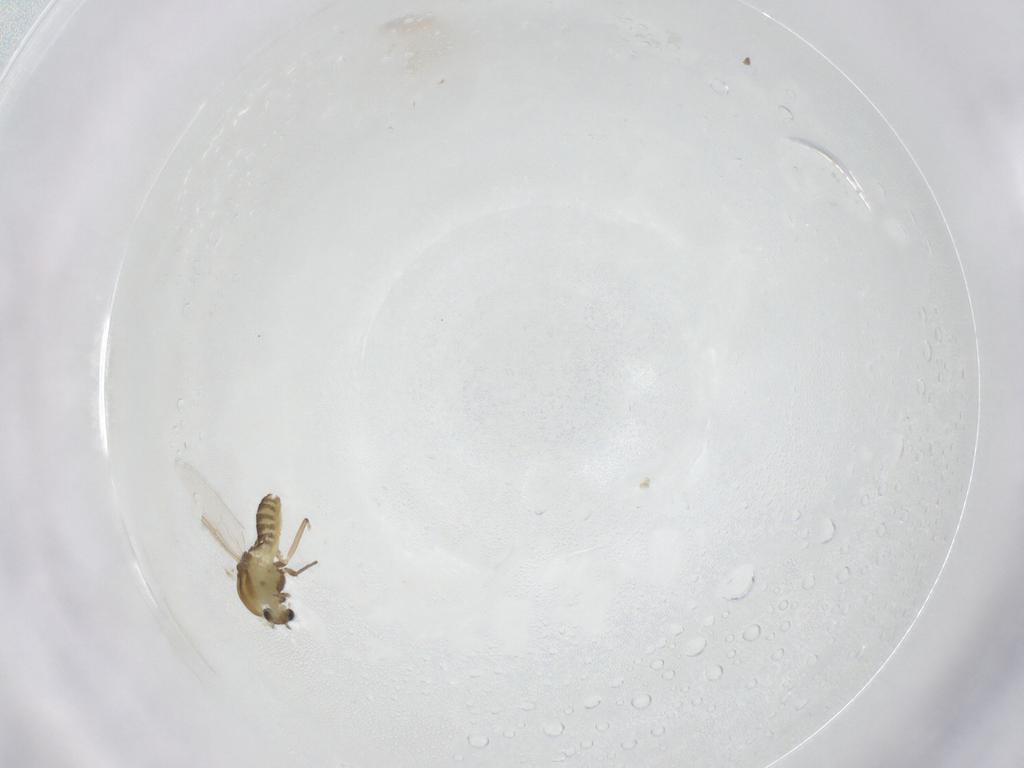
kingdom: Animalia
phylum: Arthropoda
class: Insecta
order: Diptera
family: Chironomidae
